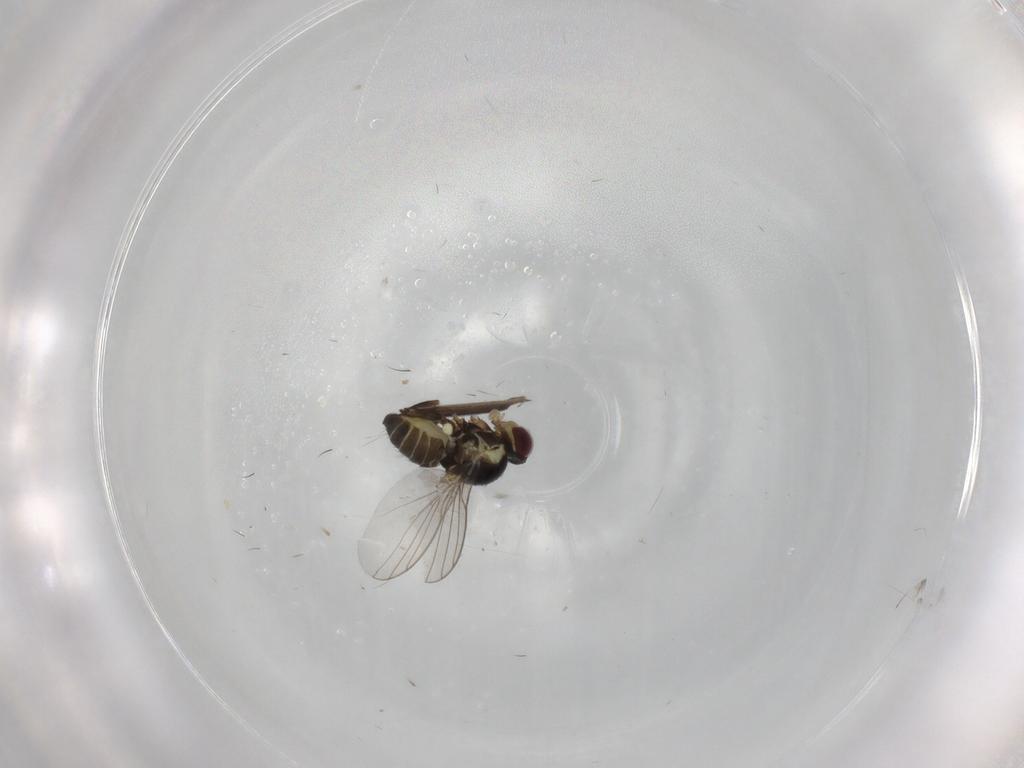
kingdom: Animalia
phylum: Arthropoda
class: Insecta
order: Diptera
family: Agromyzidae
